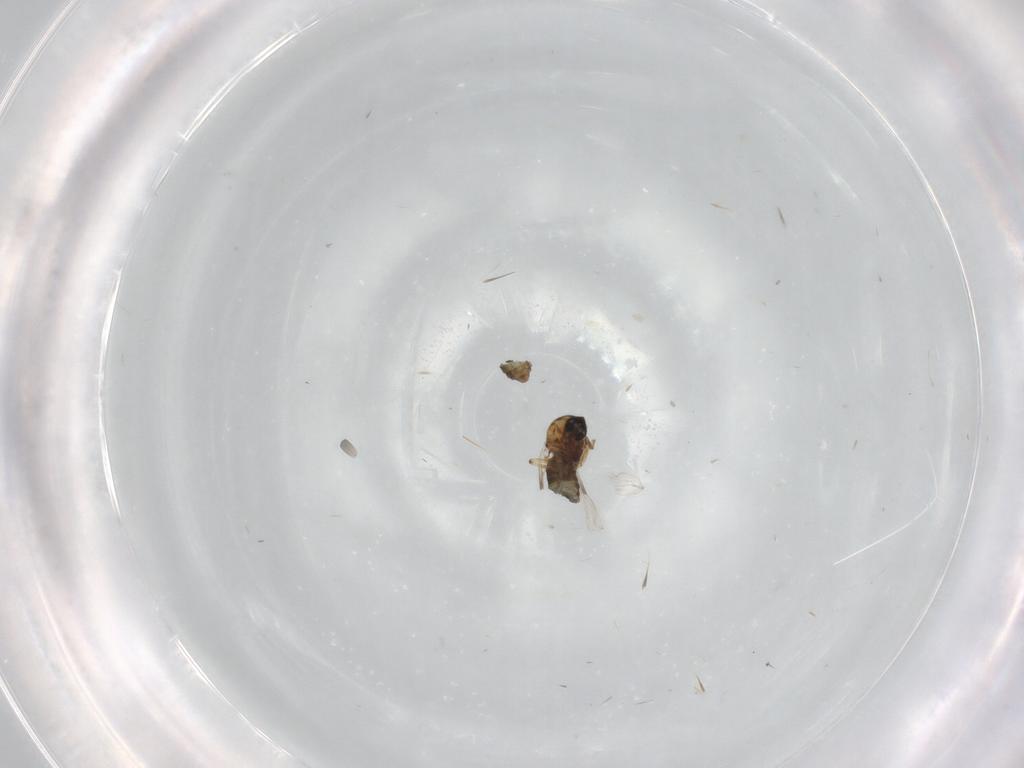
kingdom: Animalia
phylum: Arthropoda
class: Insecta
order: Diptera
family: Ceratopogonidae
